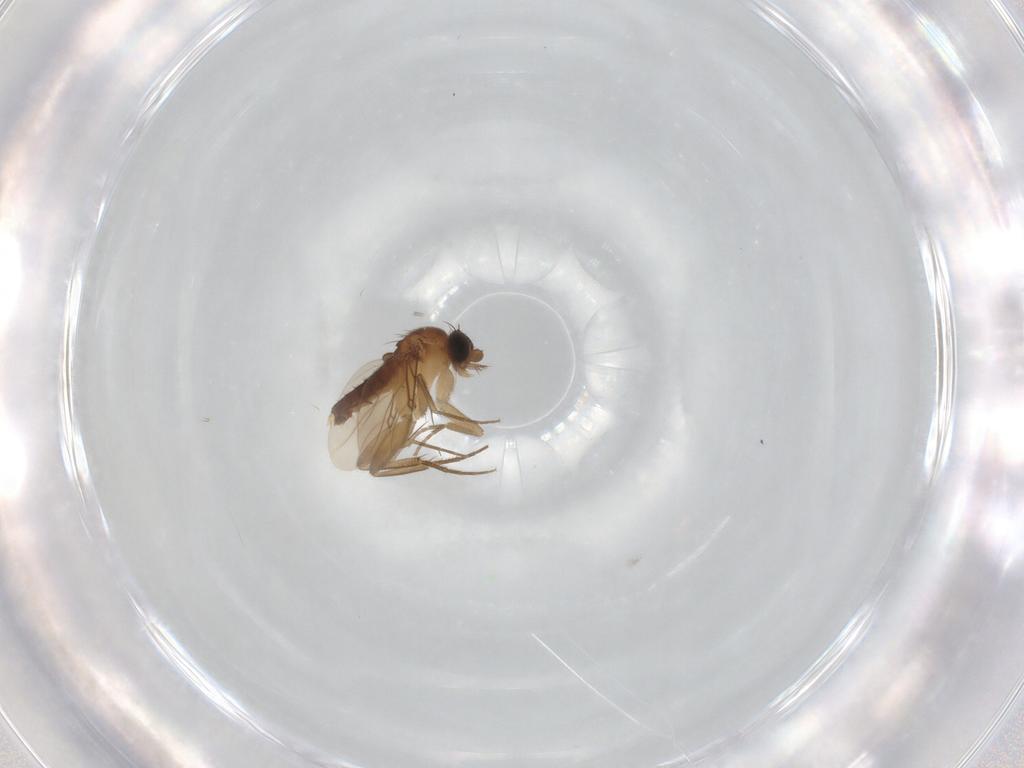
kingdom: Animalia
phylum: Arthropoda
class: Insecta
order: Diptera
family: Phoridae
